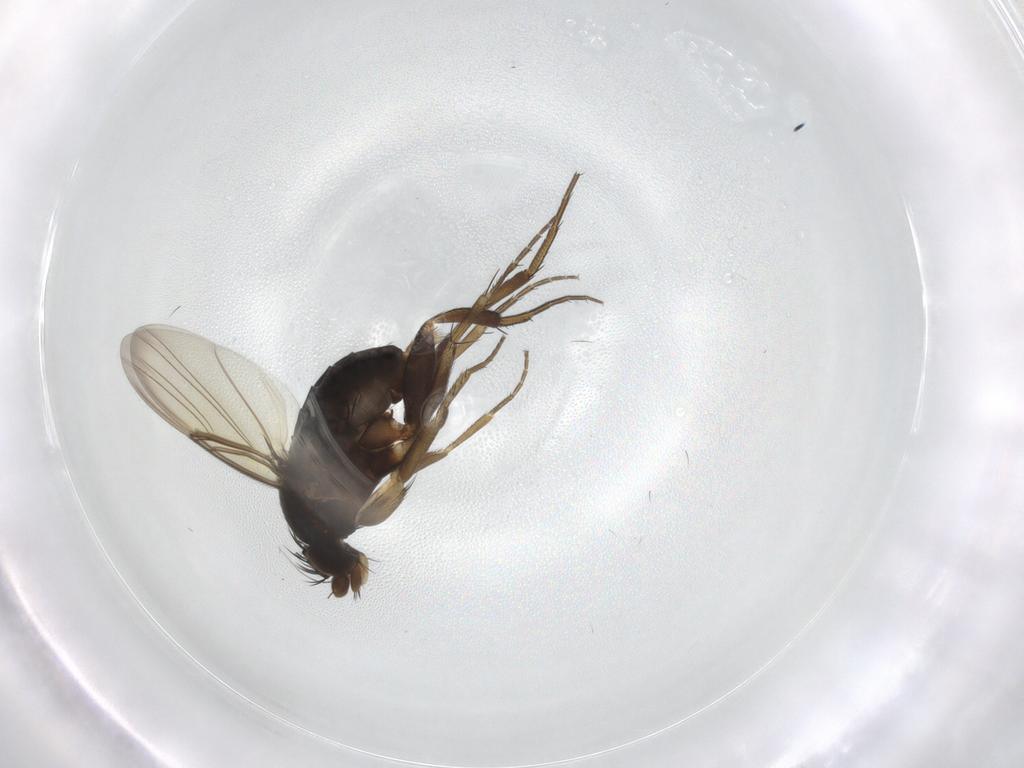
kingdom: Animalia
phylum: Arthropoda
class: Insecta
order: Diptera
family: Phoridae
